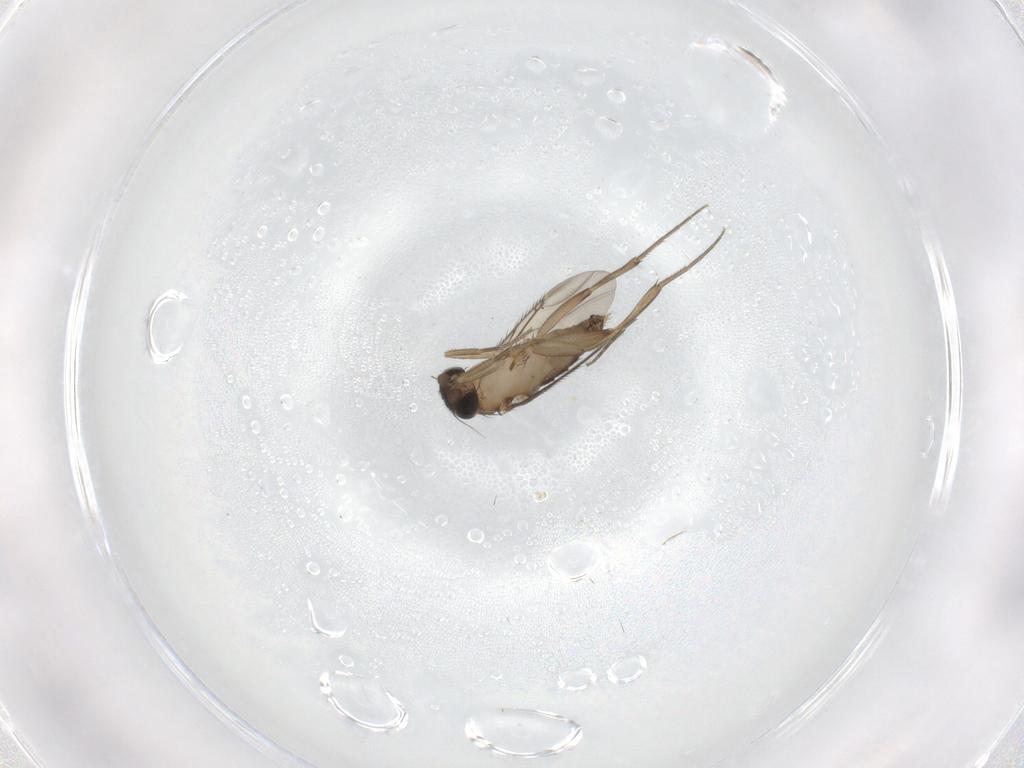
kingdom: Animalia
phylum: Arthropoda
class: Insecta
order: Diptera
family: Phoridae
